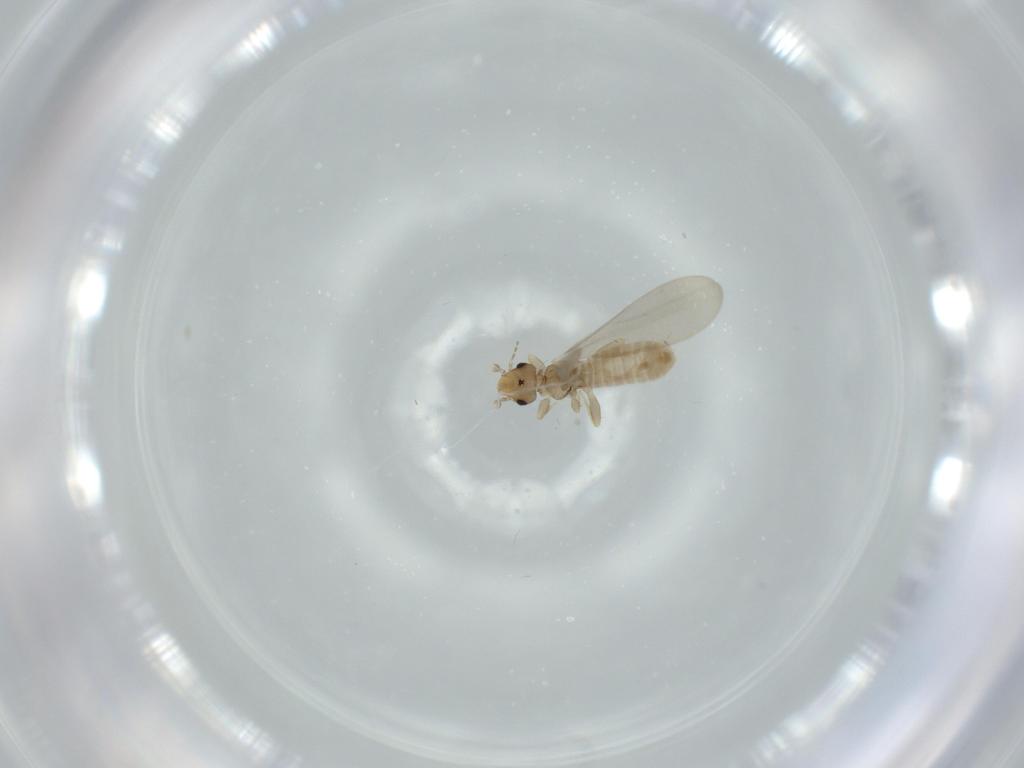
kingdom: Animalia
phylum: Arthropoda
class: Insecta
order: Psocodea
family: Liposcelididae
